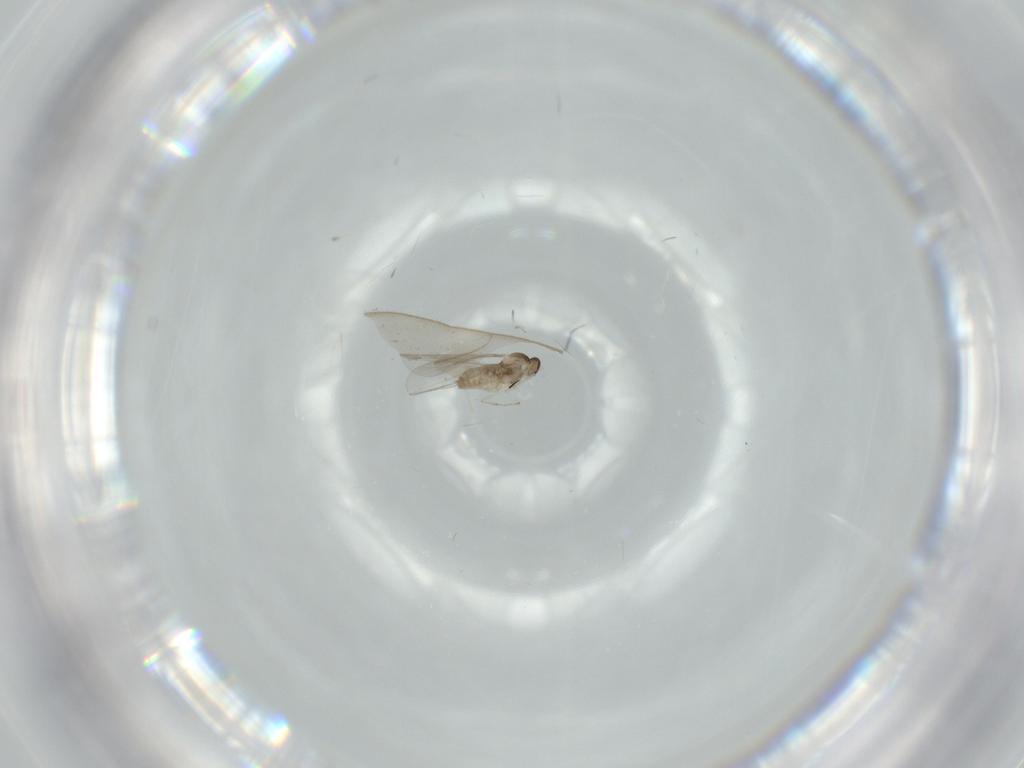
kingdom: Animalia
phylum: Arthropoda
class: Insecta
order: Diptera
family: Cecidomyiidae
